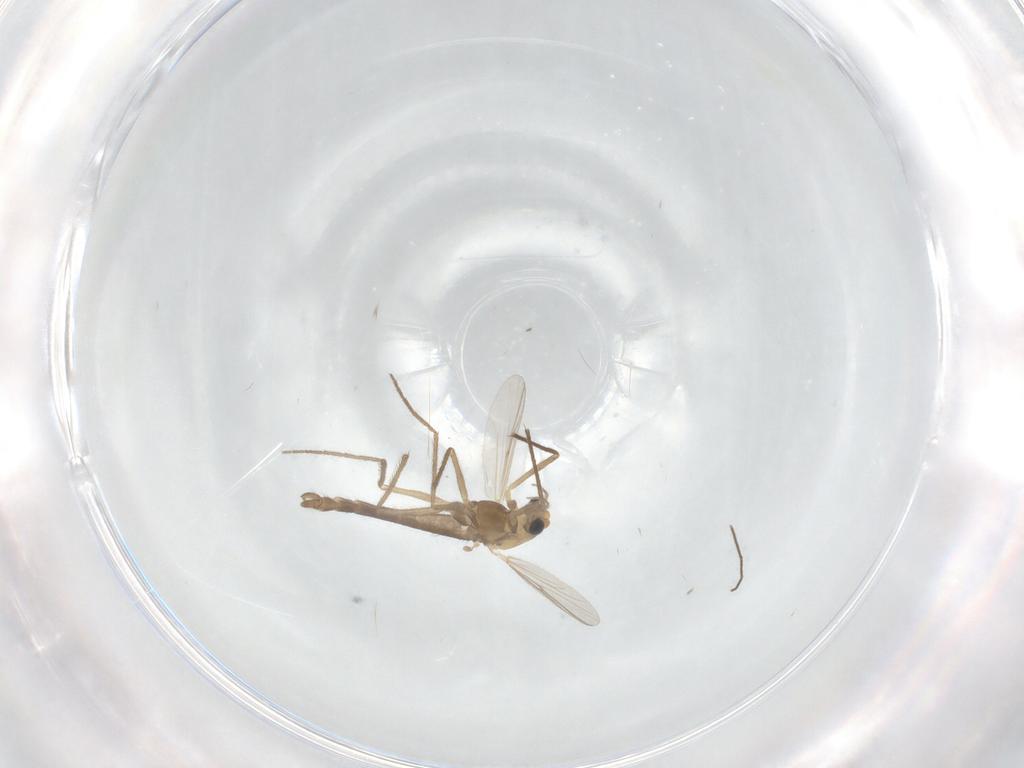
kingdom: Animalia
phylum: Arthropoda
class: Insecta
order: Diptera
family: Chironomidae
